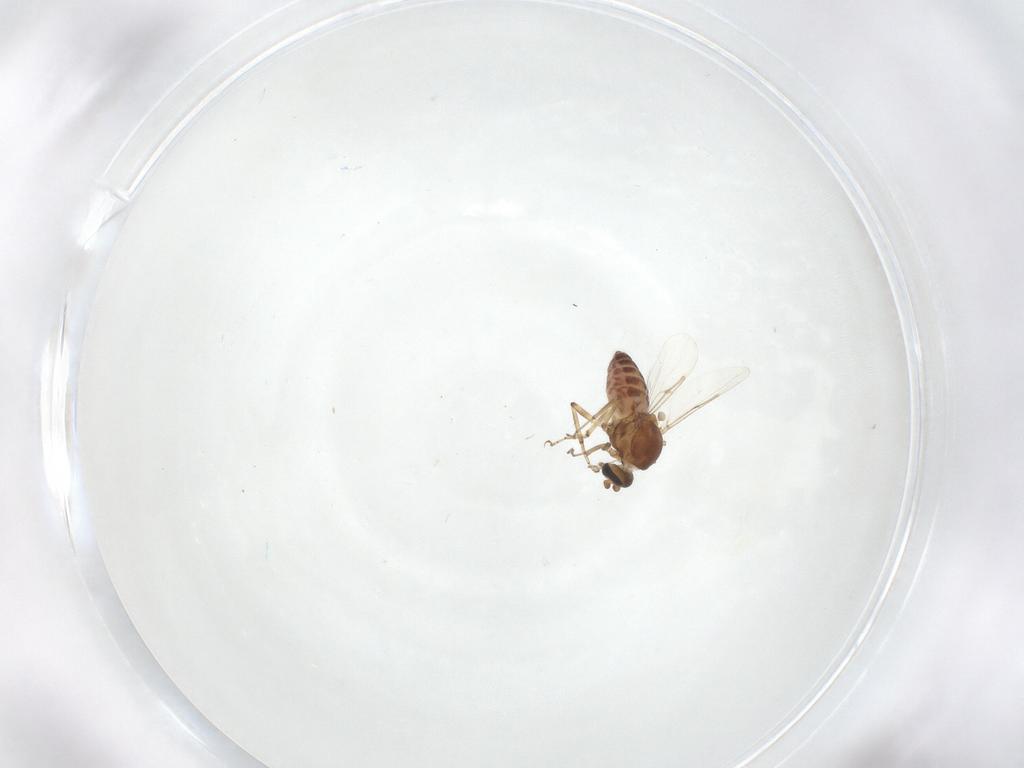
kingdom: Animalia
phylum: Arthropoda
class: Insecta
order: Diptera
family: Ceratopogonidae
